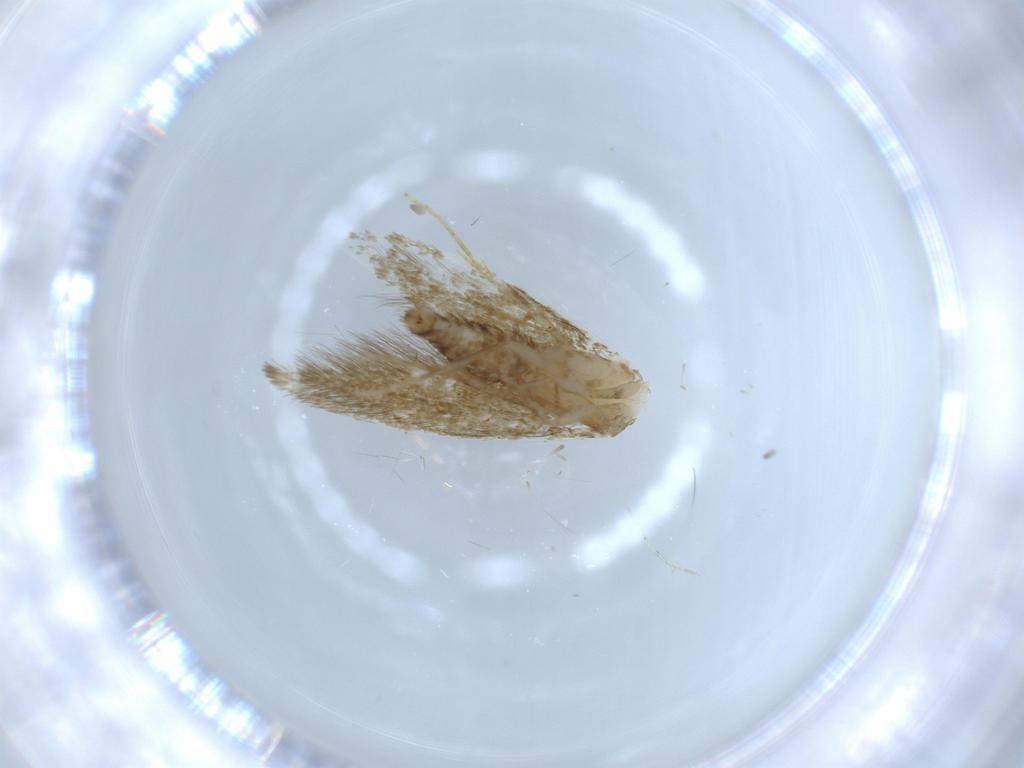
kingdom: Animalia
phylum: Arthropoda
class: Insecta
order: Lepidoptera
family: Tineidae
